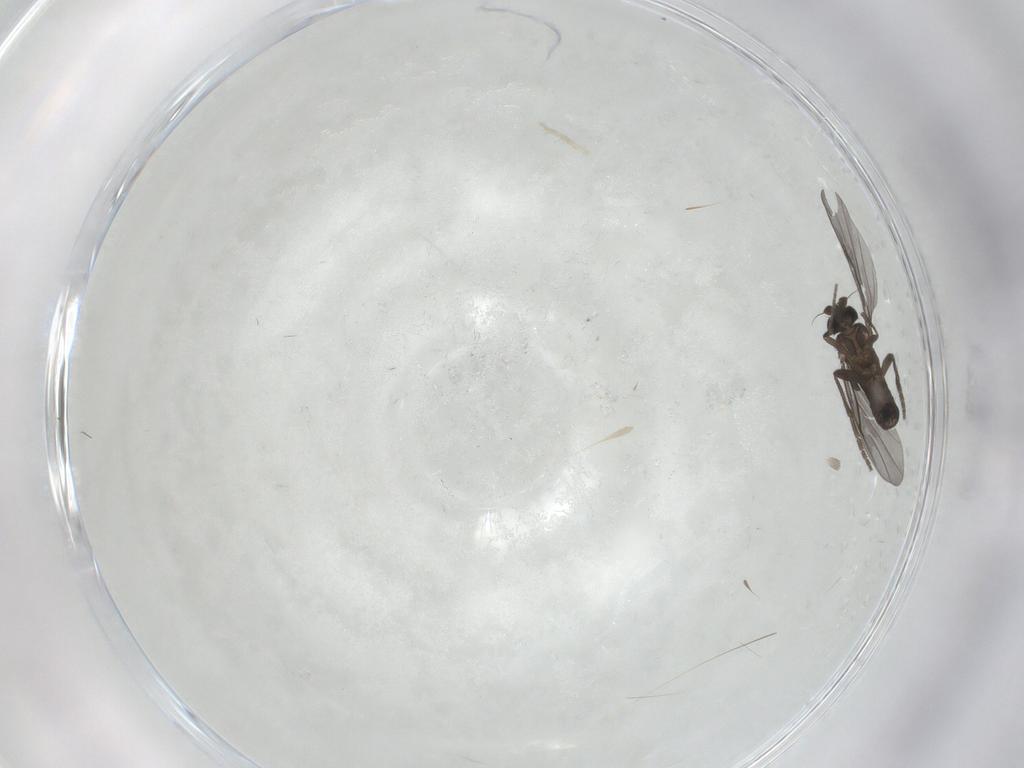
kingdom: Animalia
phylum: Arthropoda
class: Insecta
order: Diptera
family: Phoridae
